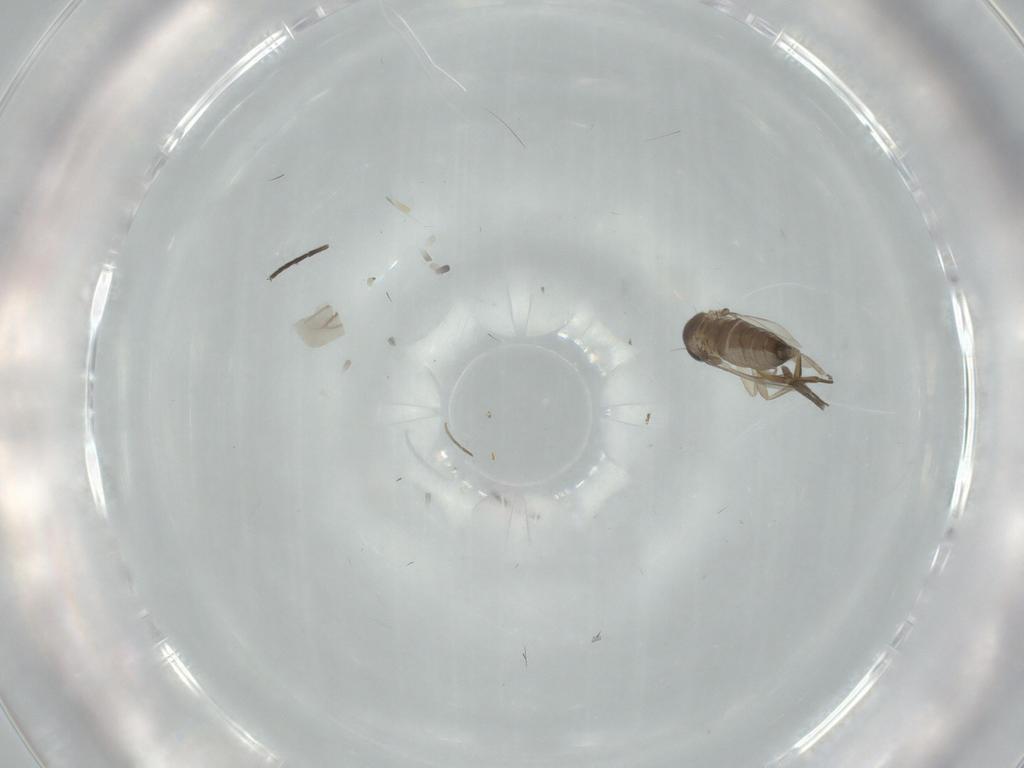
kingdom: Animalia
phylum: Arthropoda
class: Insecta
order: Diptera
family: Phoridae
